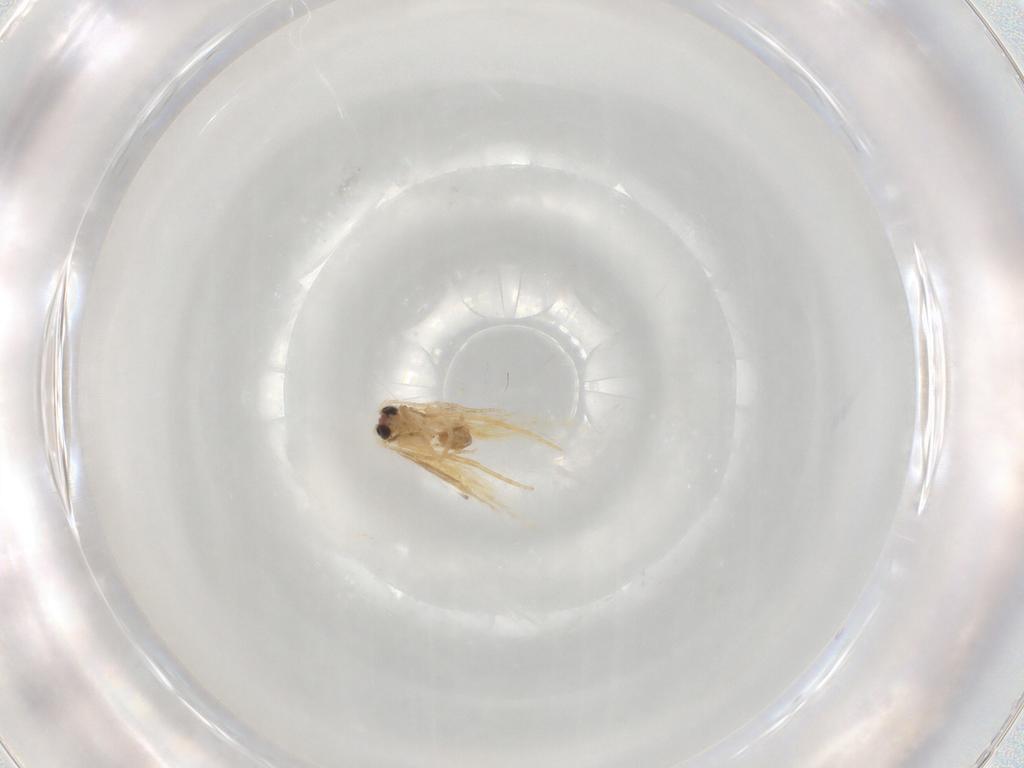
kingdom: Animalia
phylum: Arthropoda
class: Insecta
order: Lepidoptera
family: Nepticulidae
